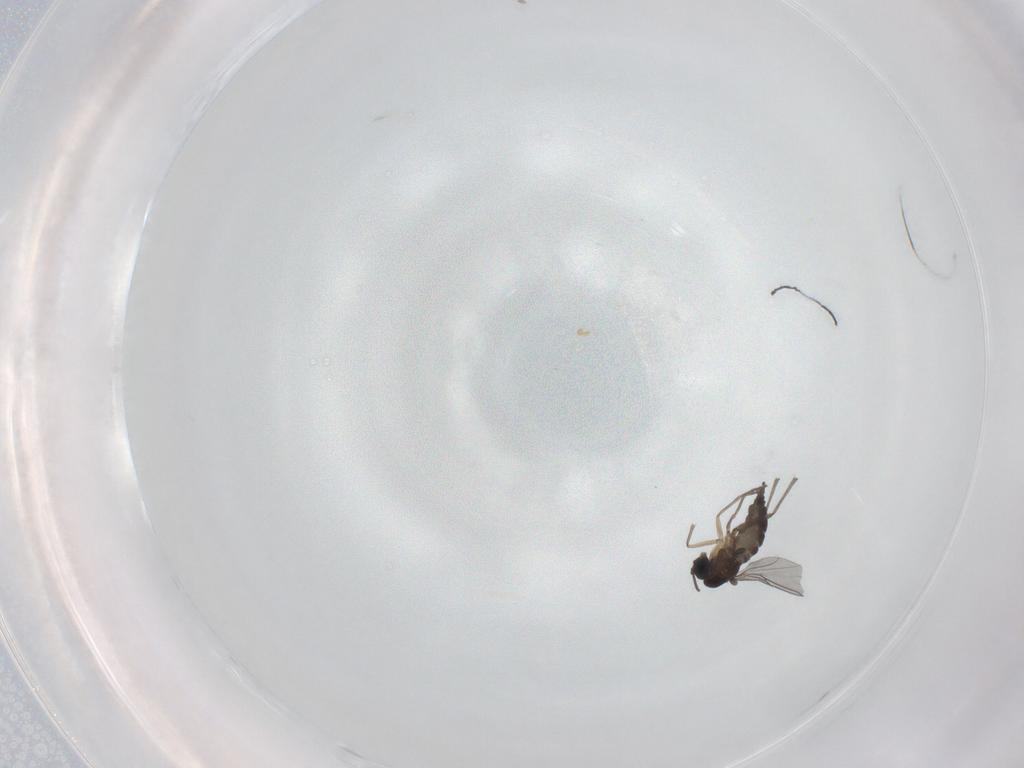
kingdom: Animalia
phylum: Arthropoda
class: Insecta
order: Diptera
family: Sciaridae
